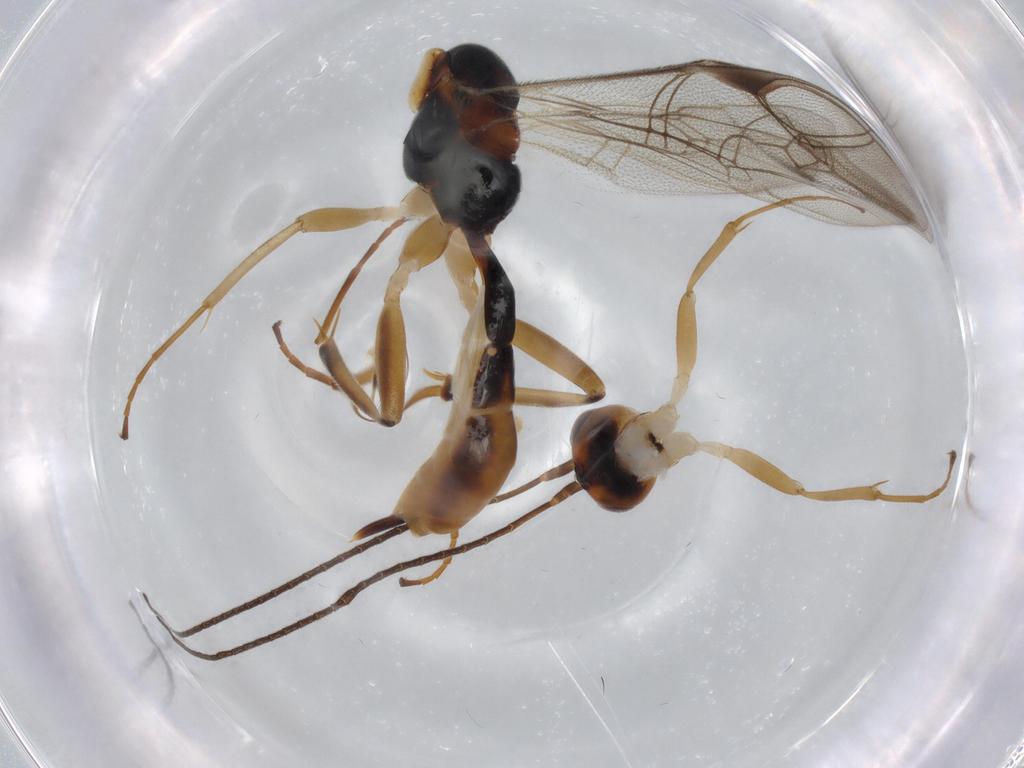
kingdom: Animalia
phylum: Arthropoda
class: Insecta
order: Hymenoptera
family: Ichneumonidae
